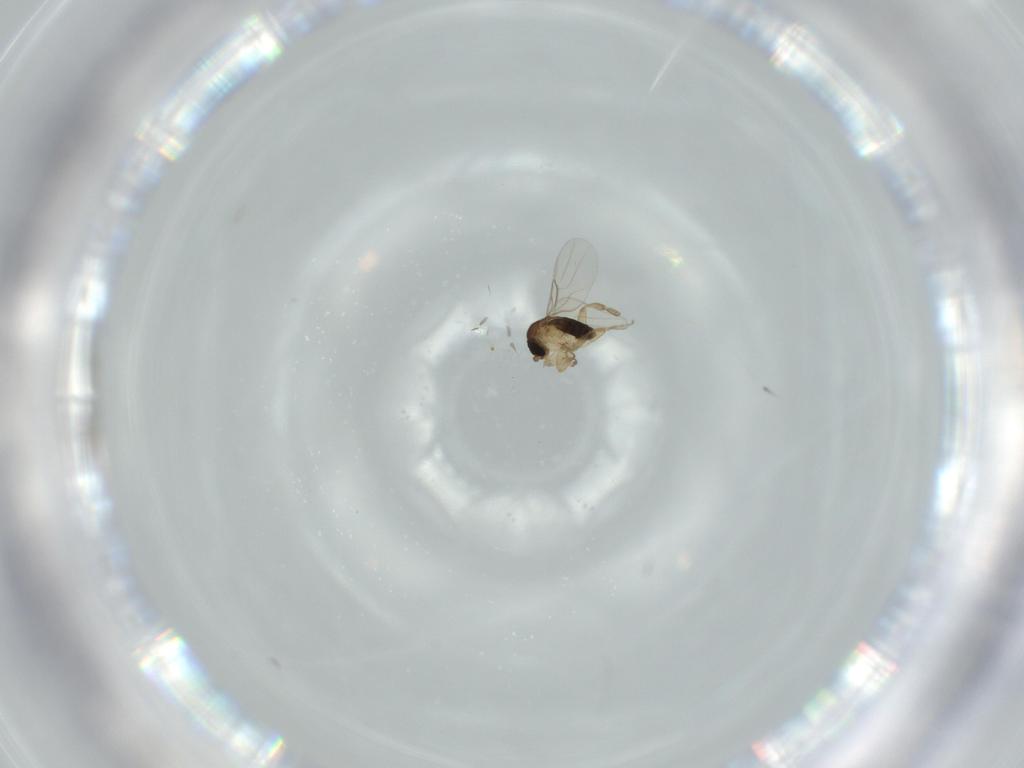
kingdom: Animalia
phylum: Arthropoda
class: Insecta
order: Diptera
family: Phoridae
